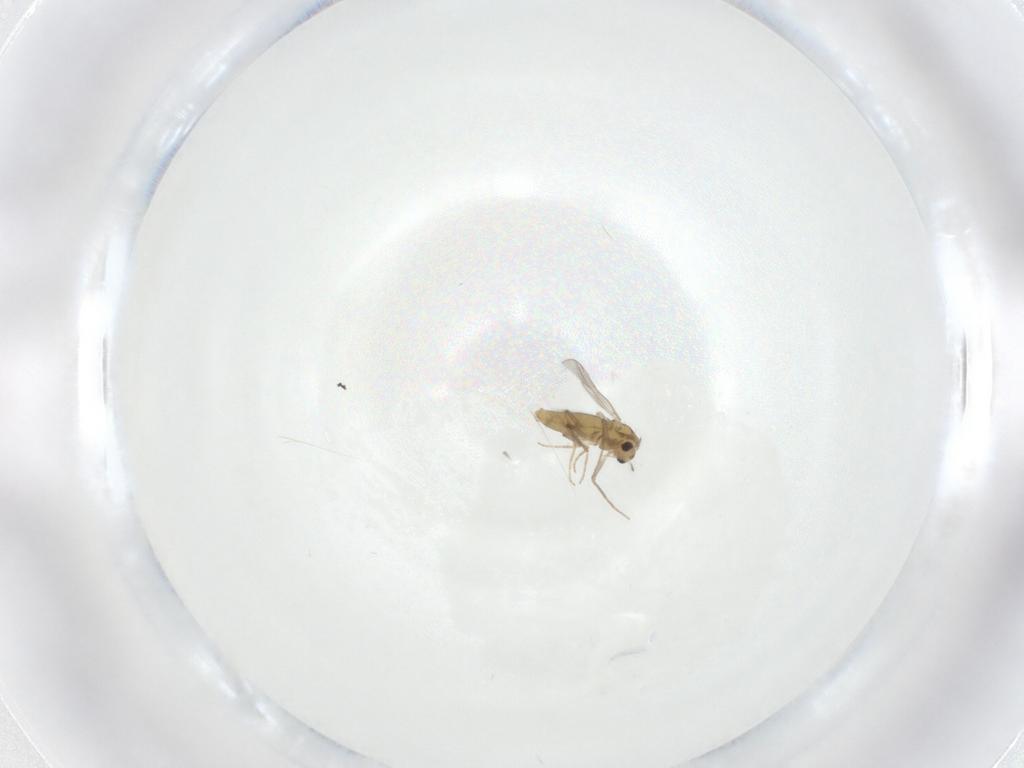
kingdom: Animalia
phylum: Arthropoda
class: Insecta
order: Diptera
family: Chironomidae
